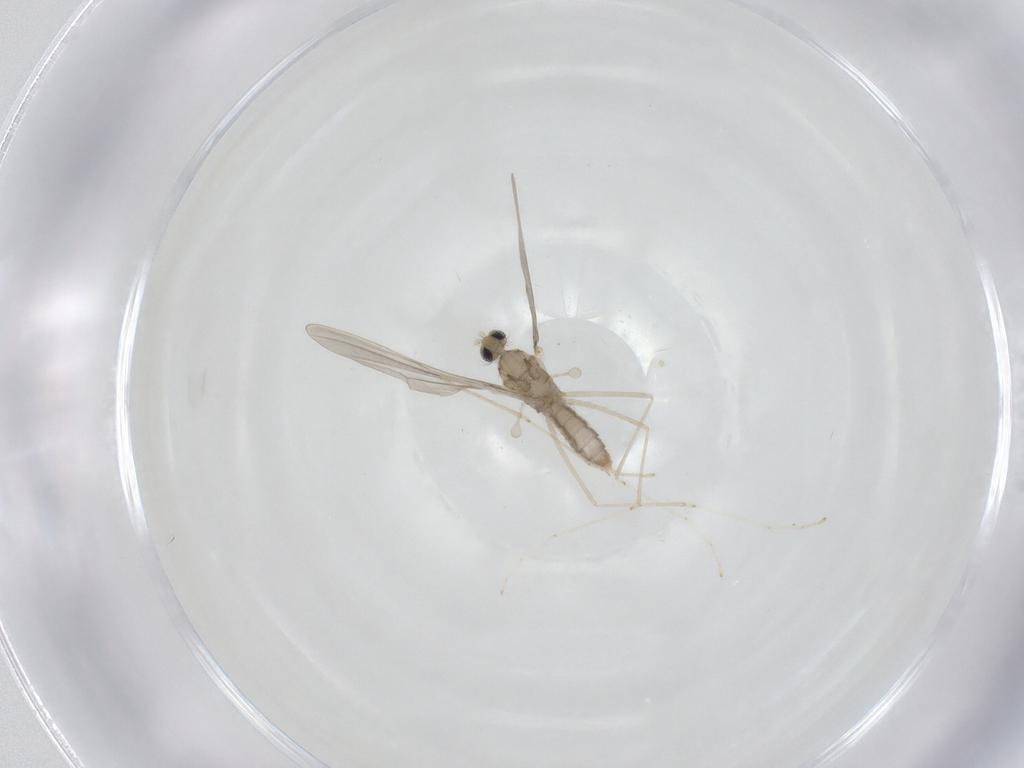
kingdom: Animalia
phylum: Arthropoda
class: Insecta
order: Diptera
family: Cecidomyiidae
